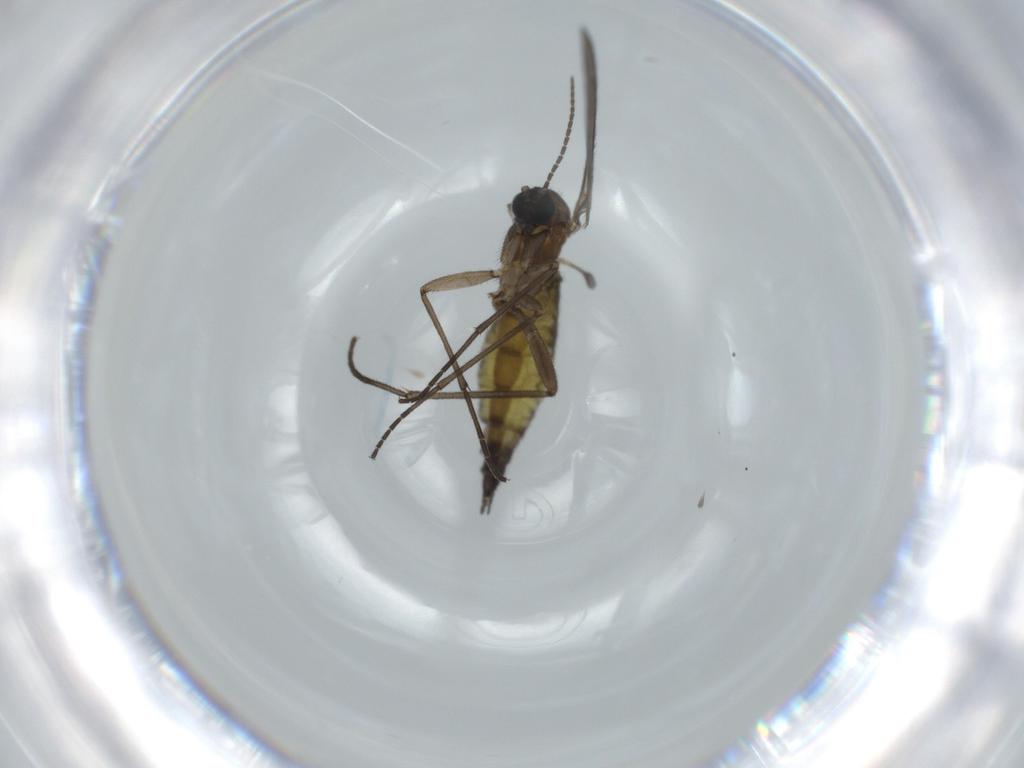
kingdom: Animalia
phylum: Arthropoda
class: Insecta
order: Diptera
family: Sciaridae
